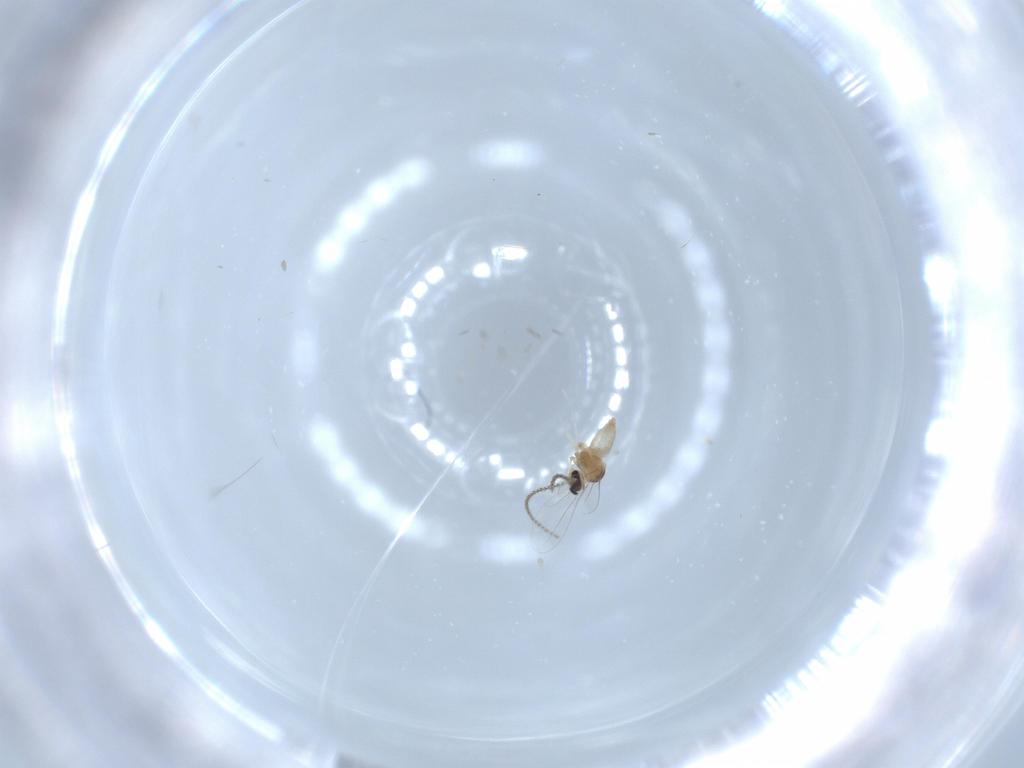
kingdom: Animalia
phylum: Arthropoda
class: Insecta
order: Diptera
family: Cecidomyiidae
